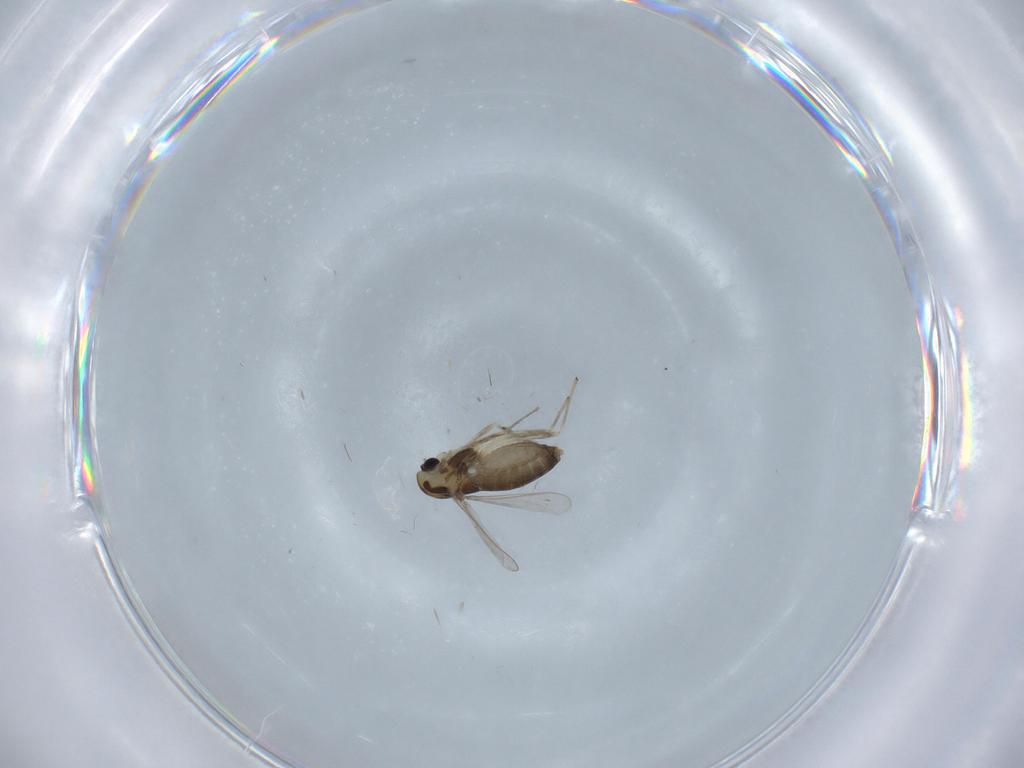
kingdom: Animalia
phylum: Arthropoda
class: Insecta
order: Diptera
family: Chironomidae
